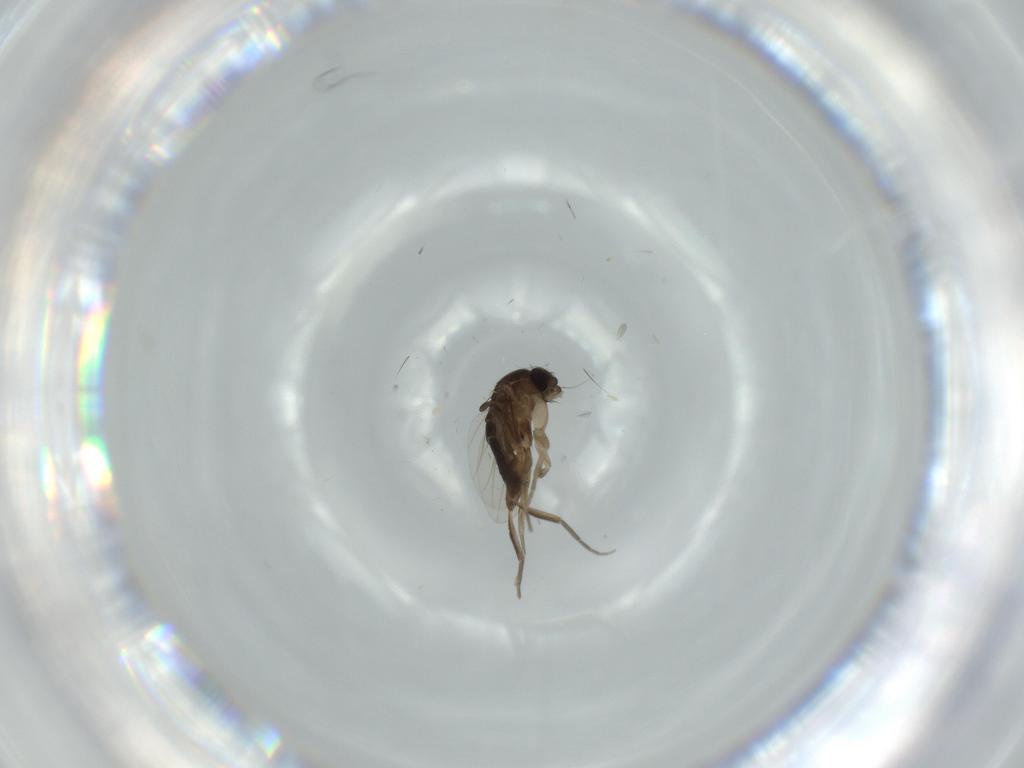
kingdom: Animalia
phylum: Arthropoda
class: Insecta
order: Diptera
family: Phoridae
